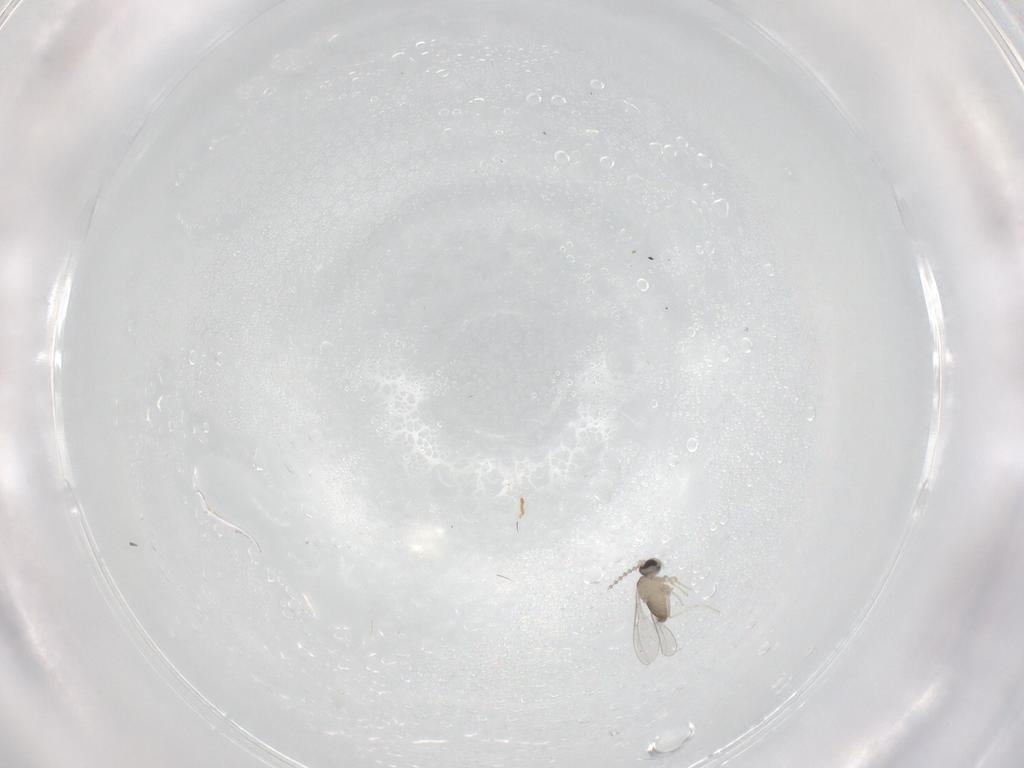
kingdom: Animalia
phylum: Arthropoda
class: Insecta
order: Diptera
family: Cecidomyiidae
